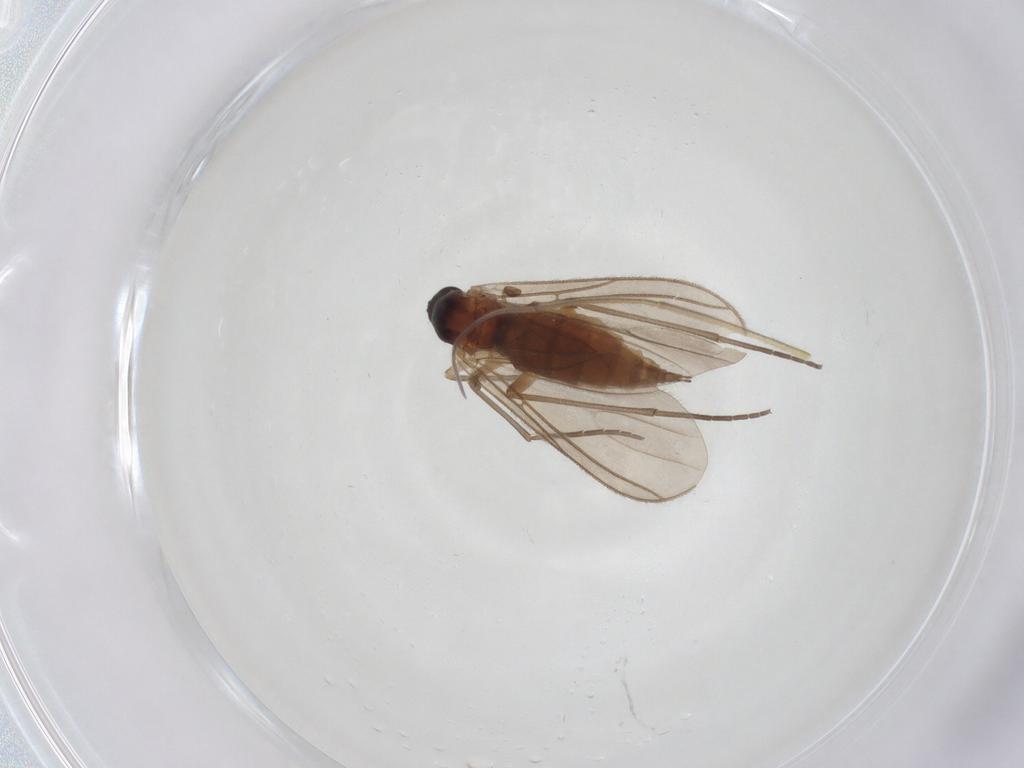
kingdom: Animalia
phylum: Arthropoda
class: Insecta
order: Diptera
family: Sciaridae
